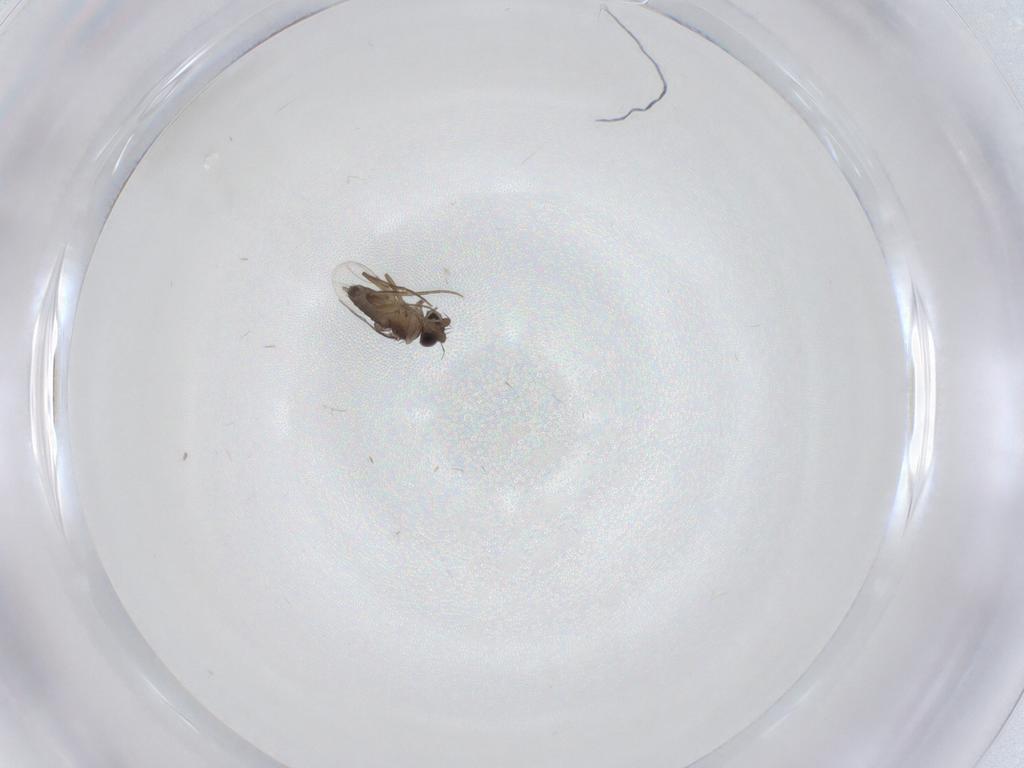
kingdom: Animalia
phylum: Arthropoda
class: Insecta
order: Diptera
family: Phoridae
